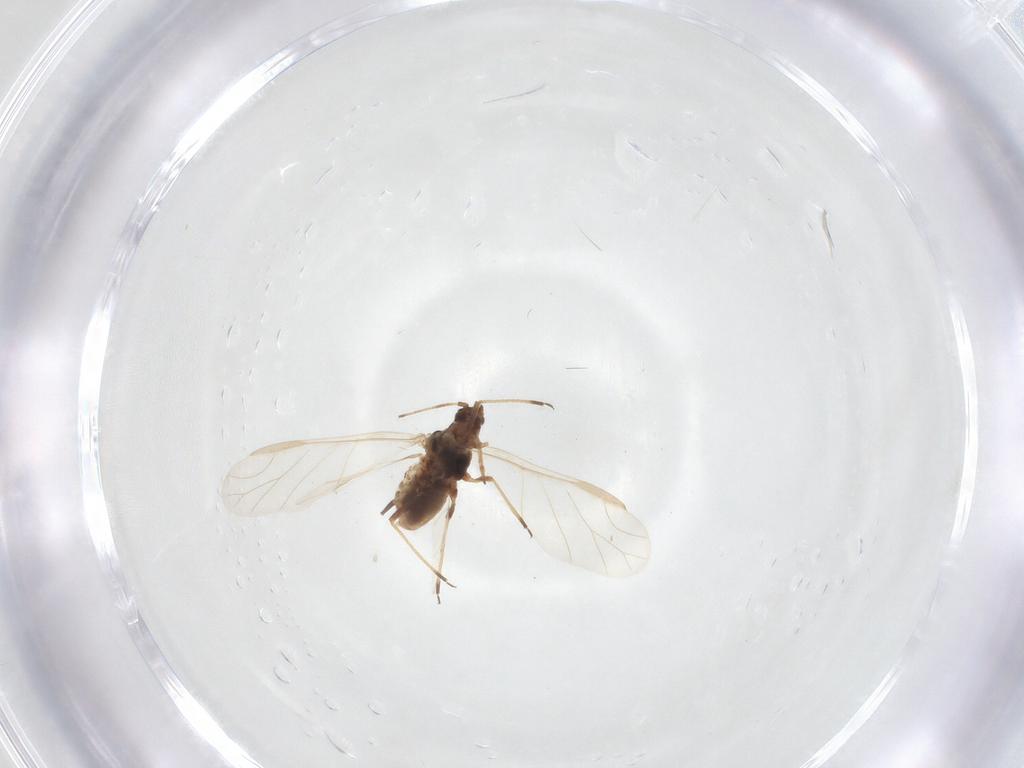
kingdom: Animalia
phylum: Arthropoda
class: Insecta
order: Hemiptera
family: Aphididae
